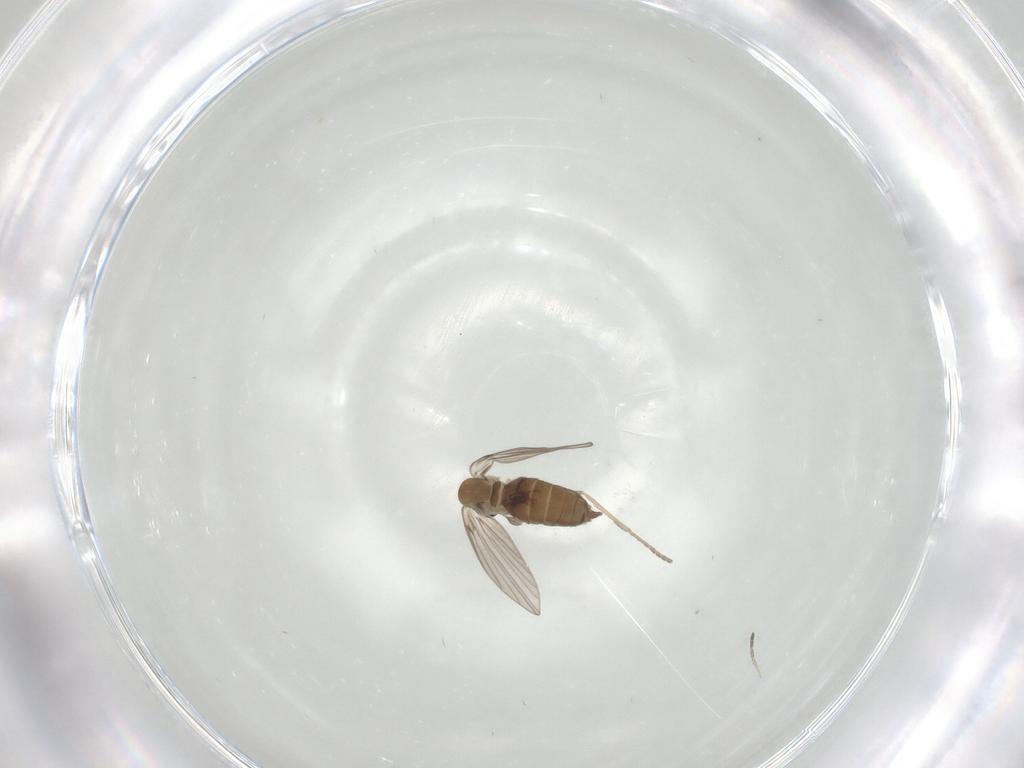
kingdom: Animalia
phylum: Arthropoda
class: Insecta
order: Diptera
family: Cecidomyiidae
